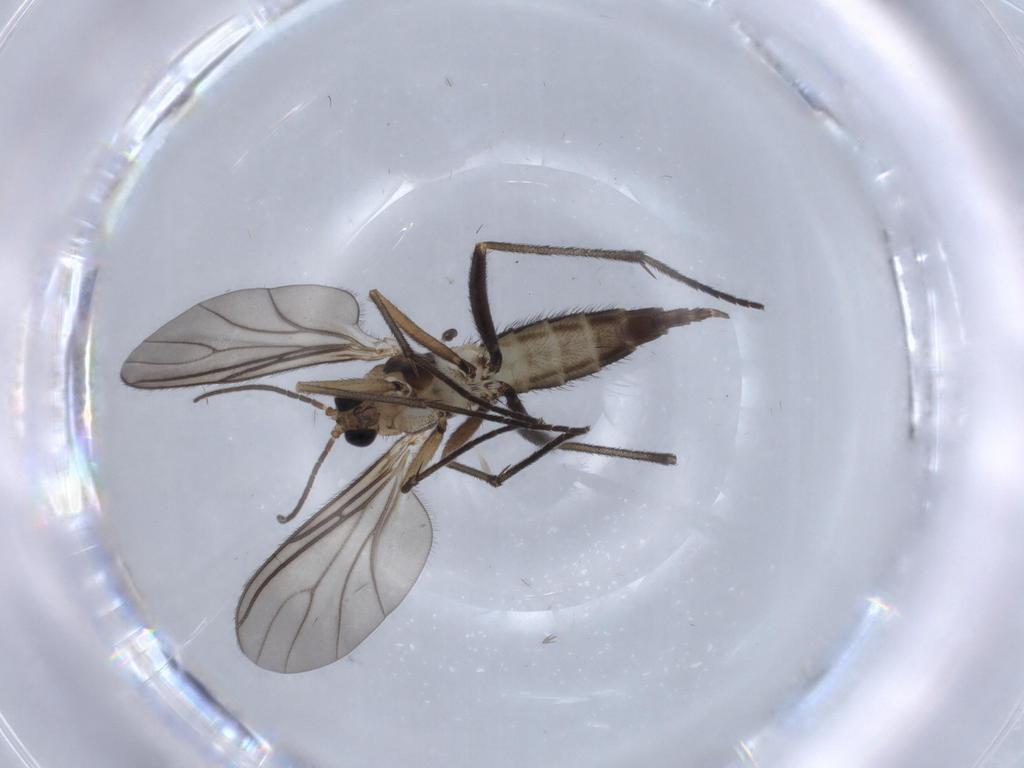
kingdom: Animalia
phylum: Arthropoda
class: Insecta
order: Diptera
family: Sciaridae
